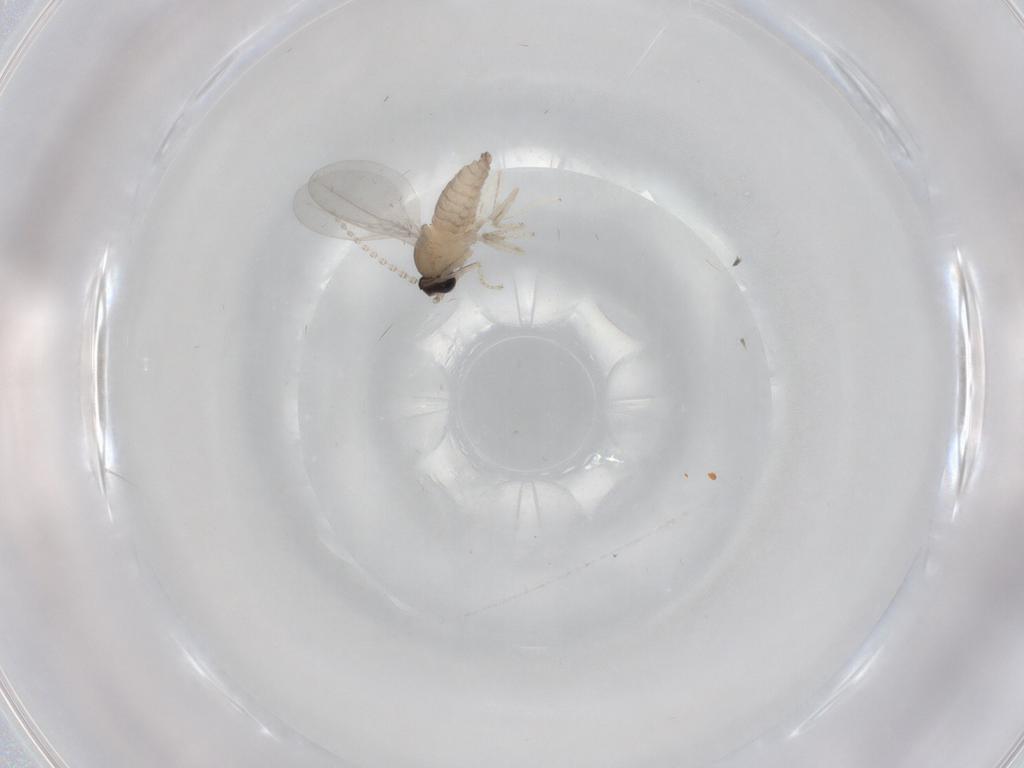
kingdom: Animalia
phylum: Arthropoda
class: Insecta
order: Diptera
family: Cecidomyiidae
